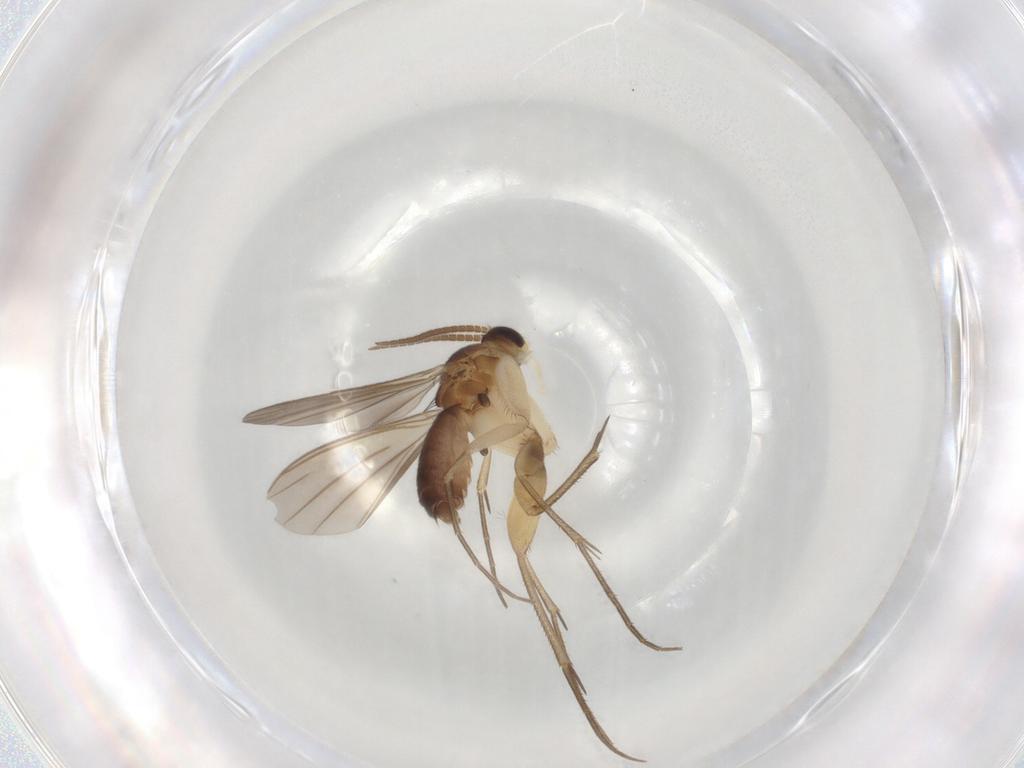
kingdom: Animalia
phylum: Arthropoda
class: Insecta
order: Diptera
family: Mycetophilidae
